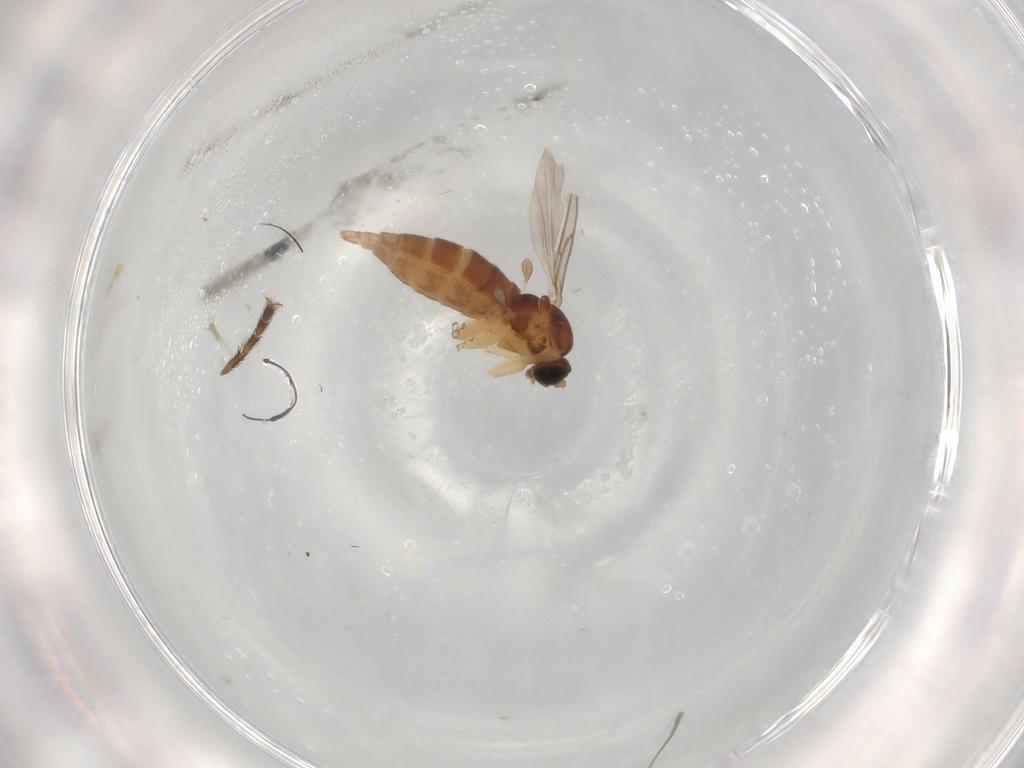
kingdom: Animalia
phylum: Arthropoda
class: Insecta
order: Diptera
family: Sciaridae
